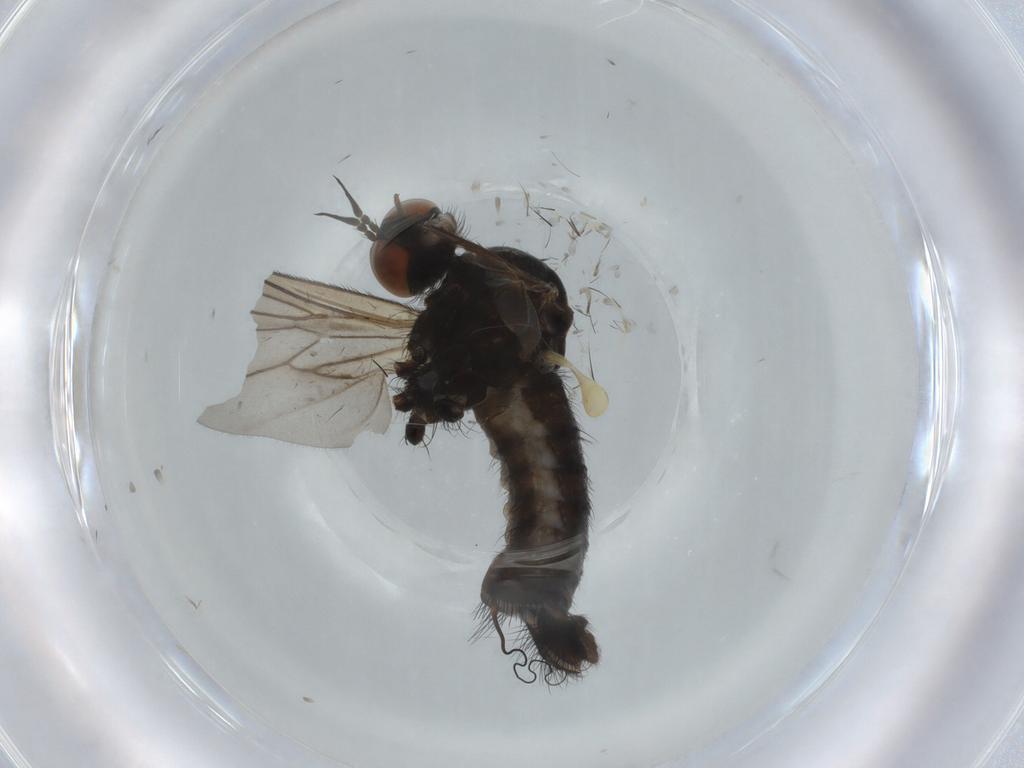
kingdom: Animalia
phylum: Arthropoda
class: Insecta
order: Diptera
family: Empididae
